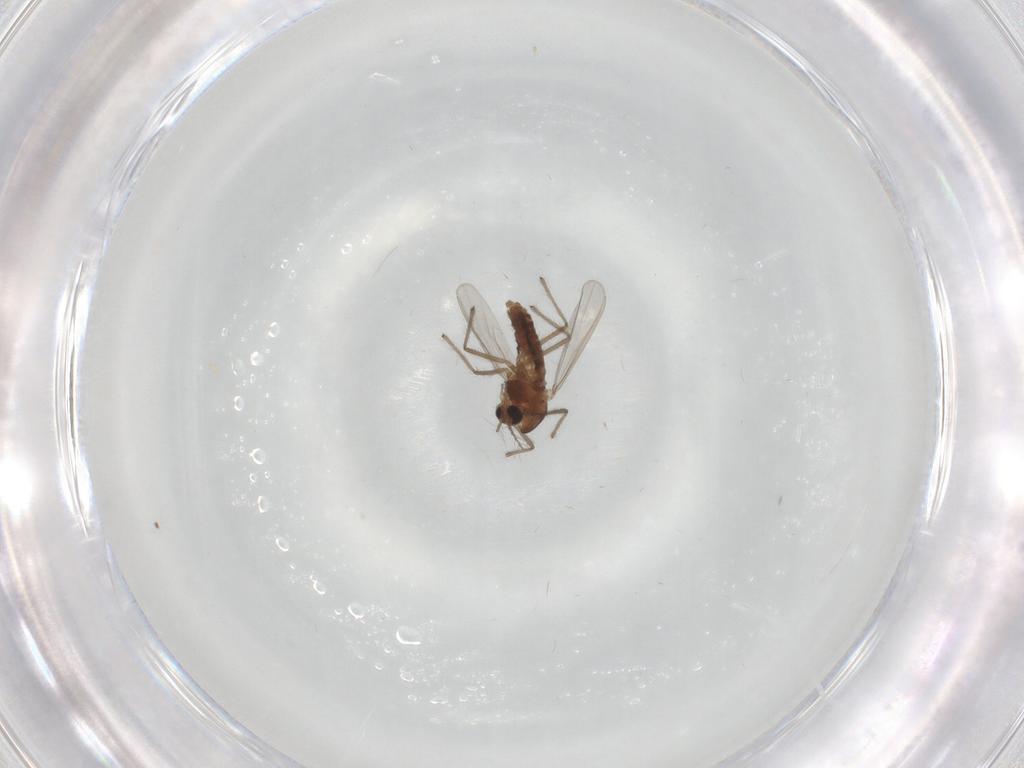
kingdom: Animalia
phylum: Arthropoda
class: Insecta
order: Diptera
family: Chironomidae
